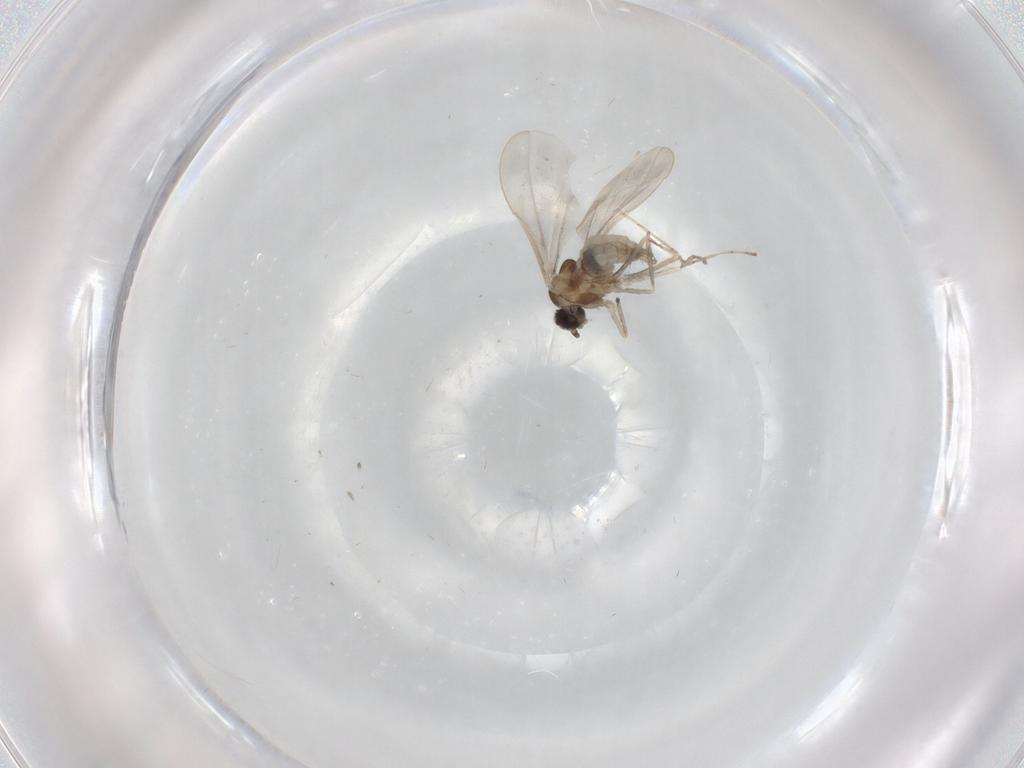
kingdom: Animalia
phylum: Arthropoda
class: Insecta
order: Diptera
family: Cecidomyiidae
